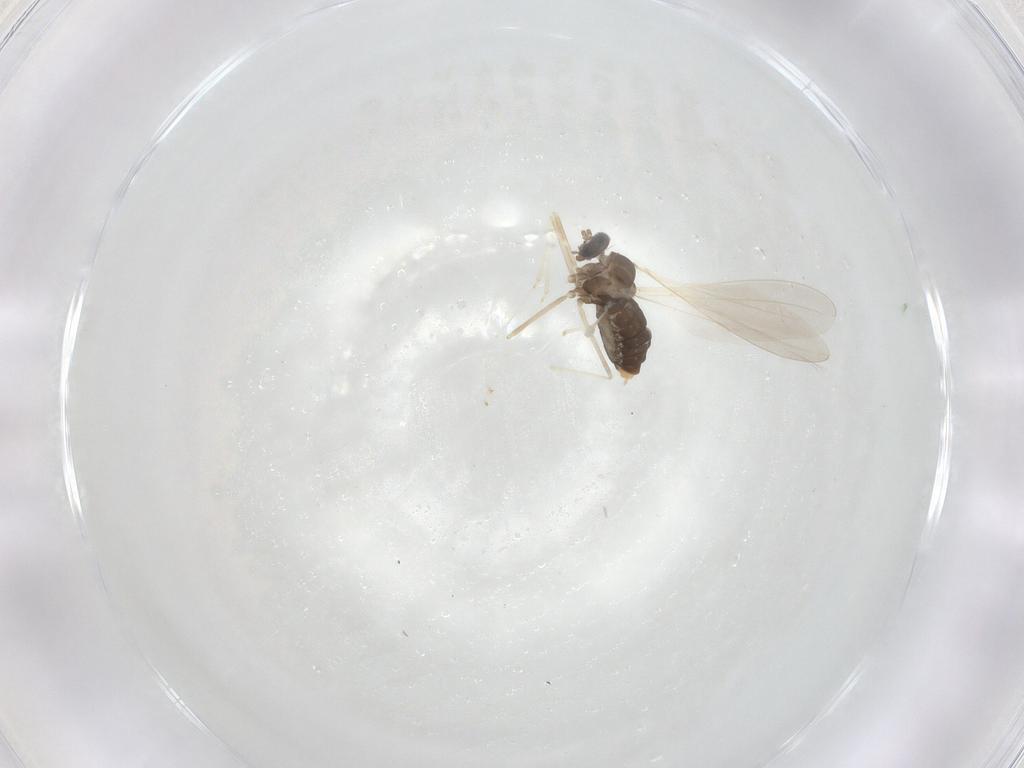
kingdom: Animalia
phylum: Arthropoda
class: Insecta
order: Diptera
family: Cecidomyiidae
